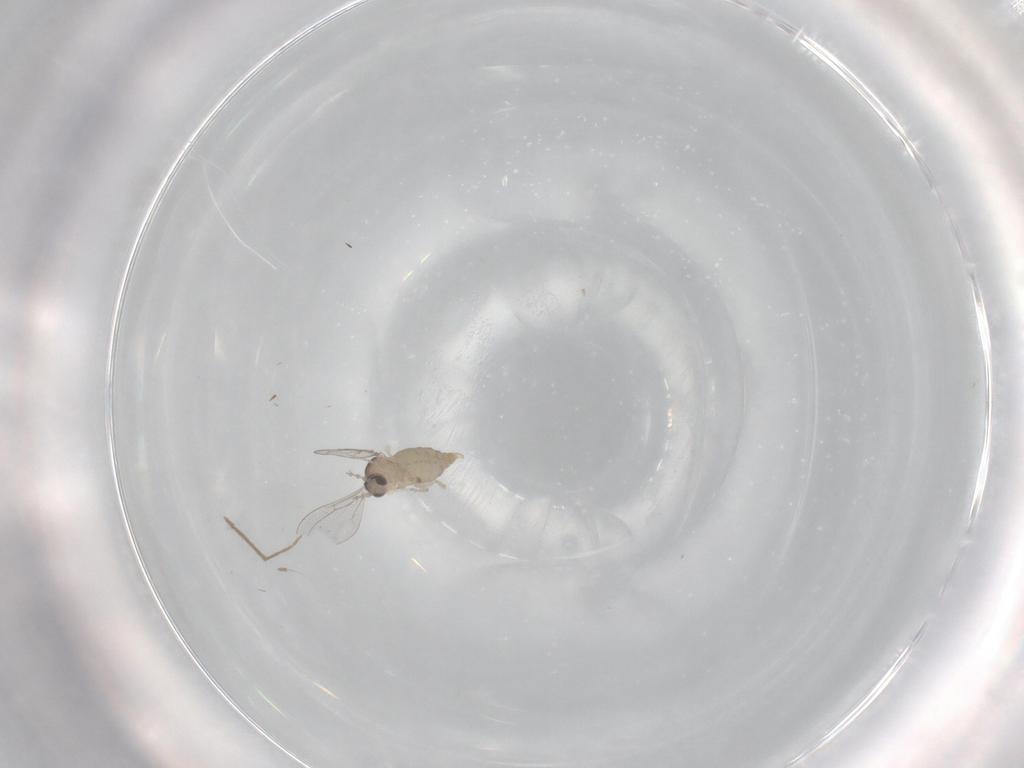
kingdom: Animalia
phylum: Arthropoda
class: Insecta
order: Diptera
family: Cecidomyiidae
